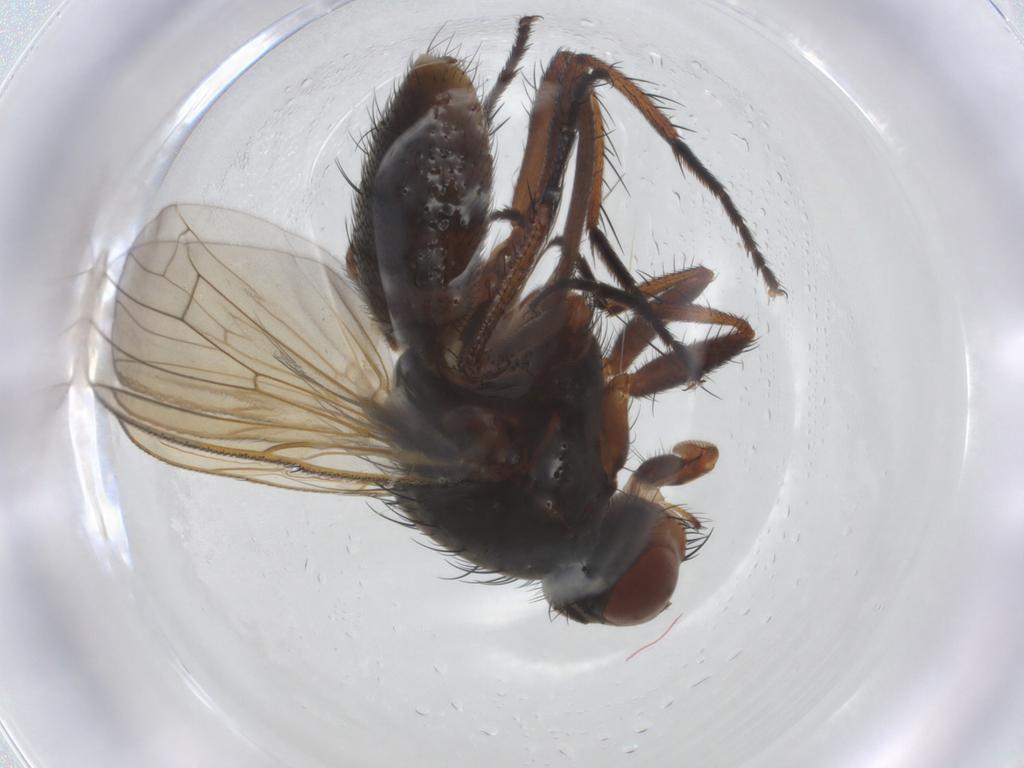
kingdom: Animalia
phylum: Arthropoda
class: Insecta
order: Diptera
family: Anthomyiidae
